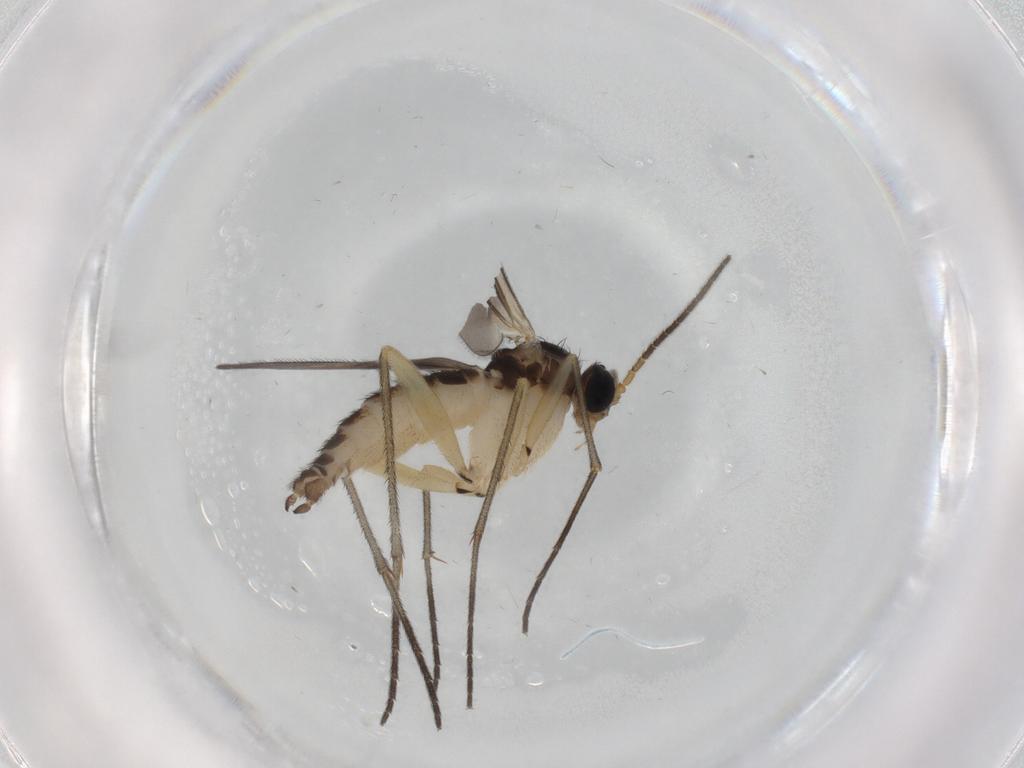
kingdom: Animalia
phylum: Arthropoda
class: Insecta
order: Diptera
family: Sciaridae
